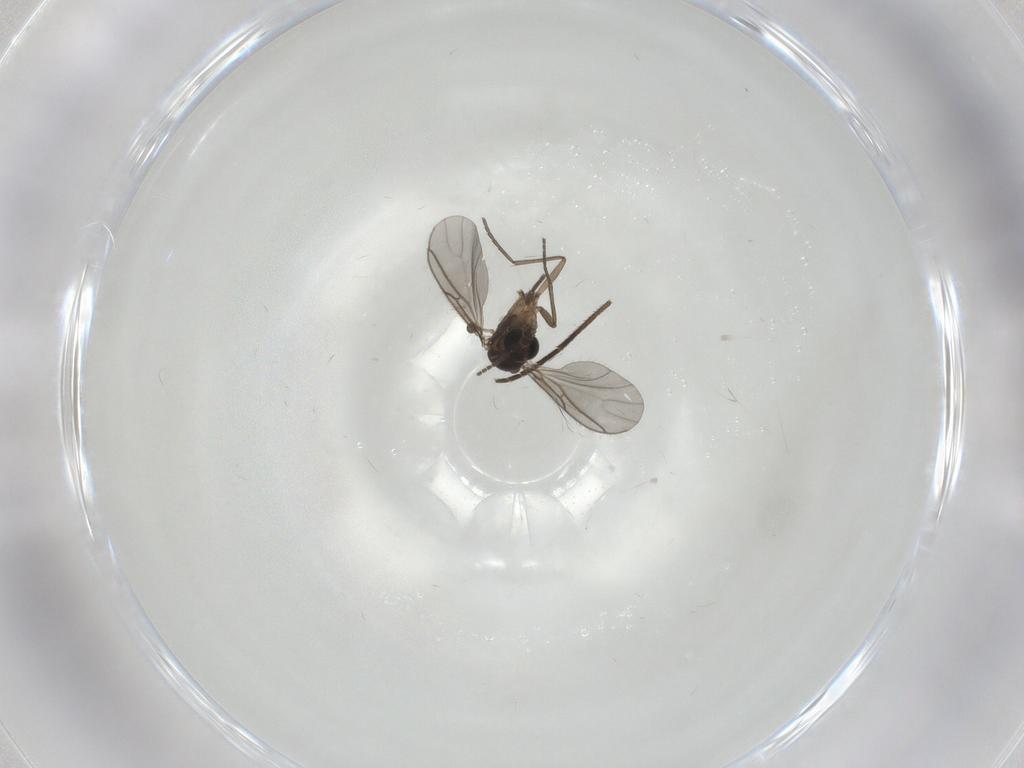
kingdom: Animalia
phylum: Arthropoda
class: Insecta
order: Diptera
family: Sciaridae
